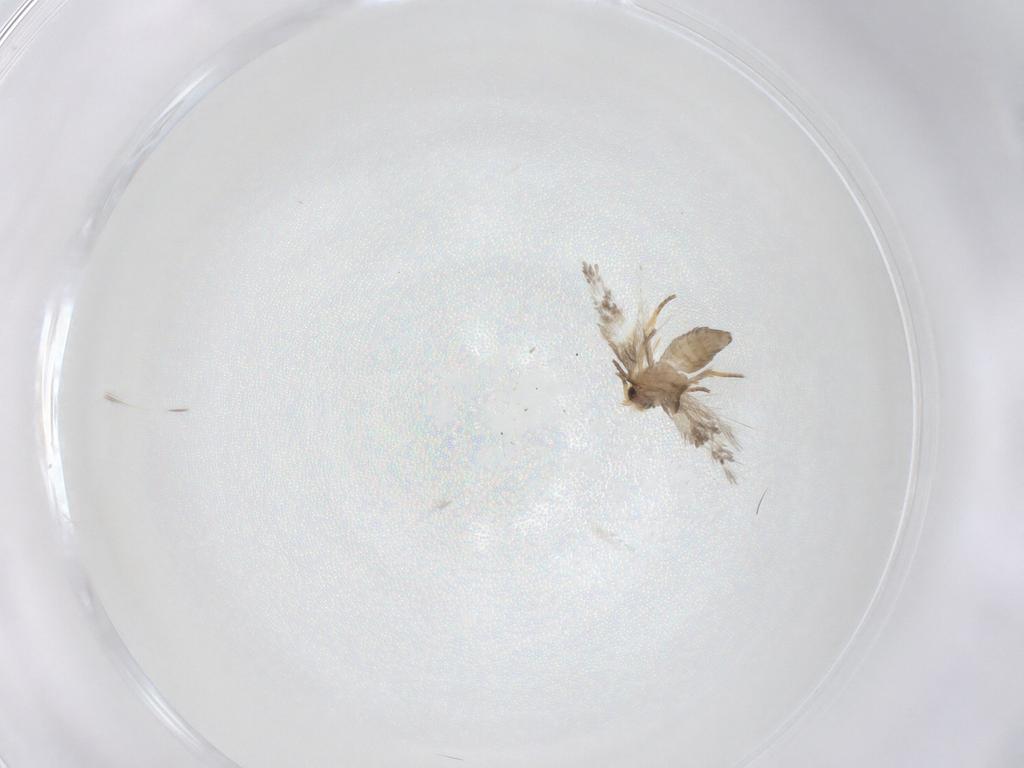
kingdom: Animalia
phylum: Arthropoda
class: Insecta
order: Lepidoptera
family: Nepticulidae
